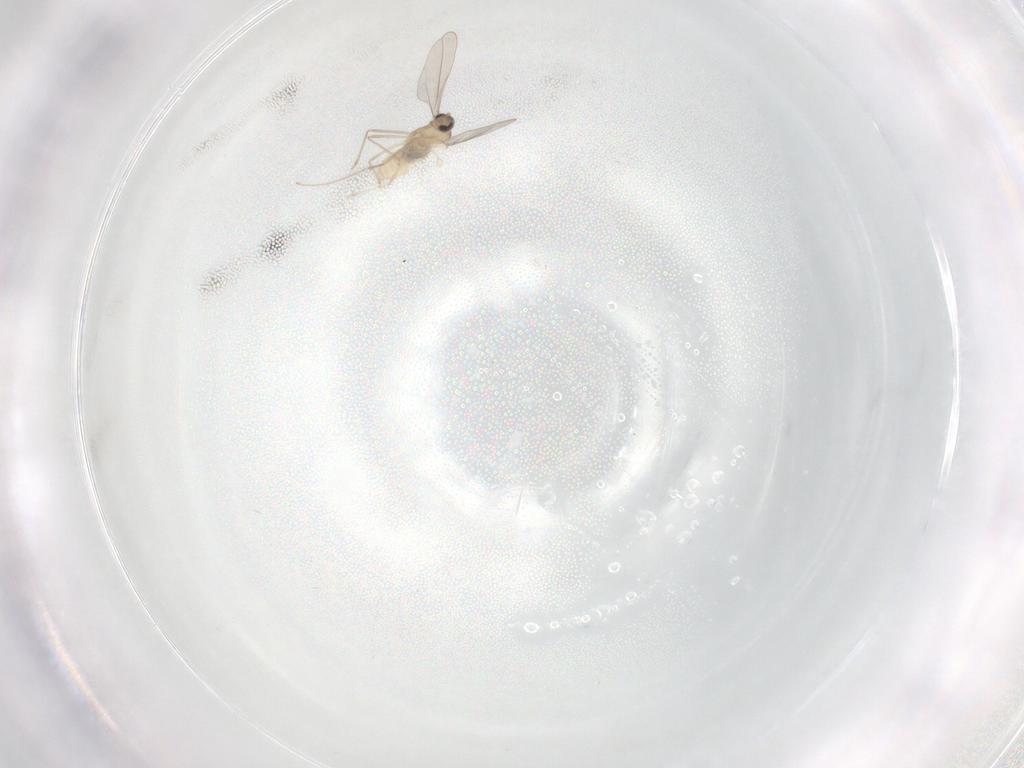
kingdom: Animalia
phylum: Arthropoda
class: Insecta
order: Diptera
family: Cecidomyiidae
